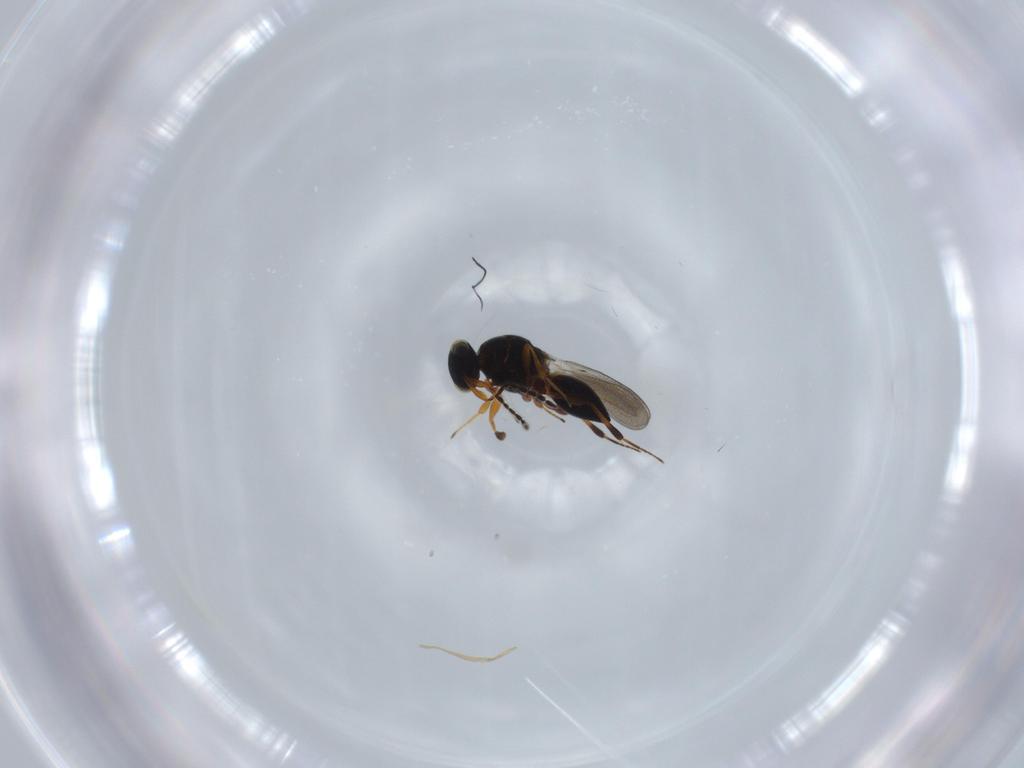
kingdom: Animalia
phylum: Arthropoda
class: Insecta
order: Hymenoptera
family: Platygastridae
